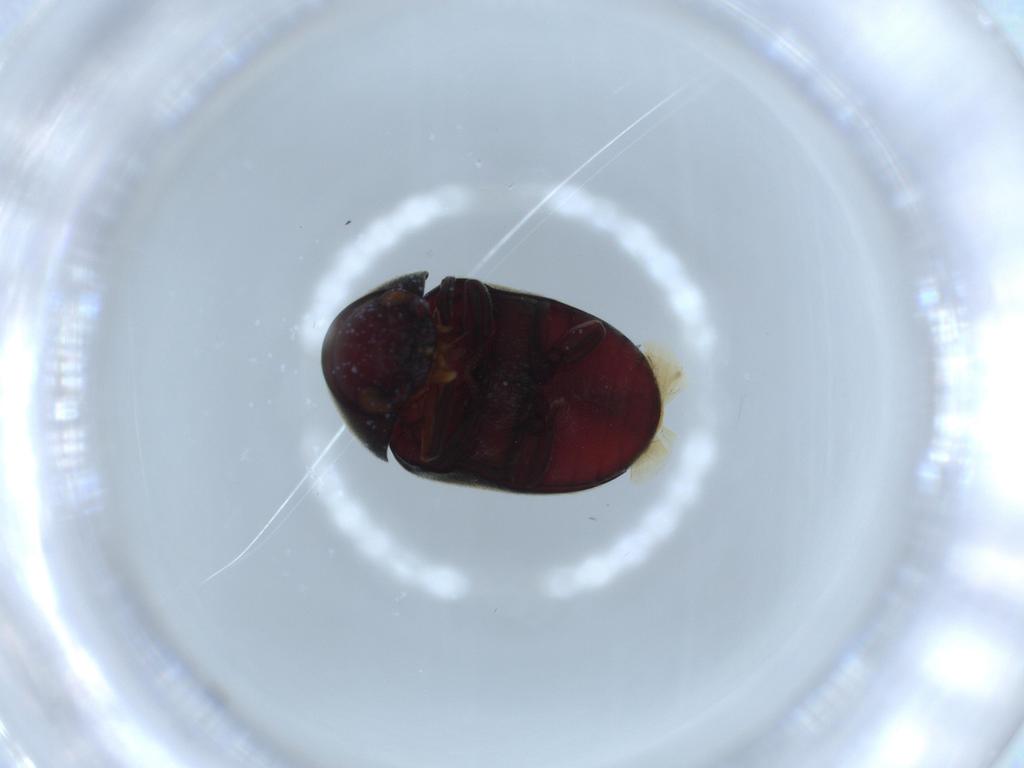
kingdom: Animalia
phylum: Arthropoda
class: Insecta
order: Coleoptera
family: Ptinidae
